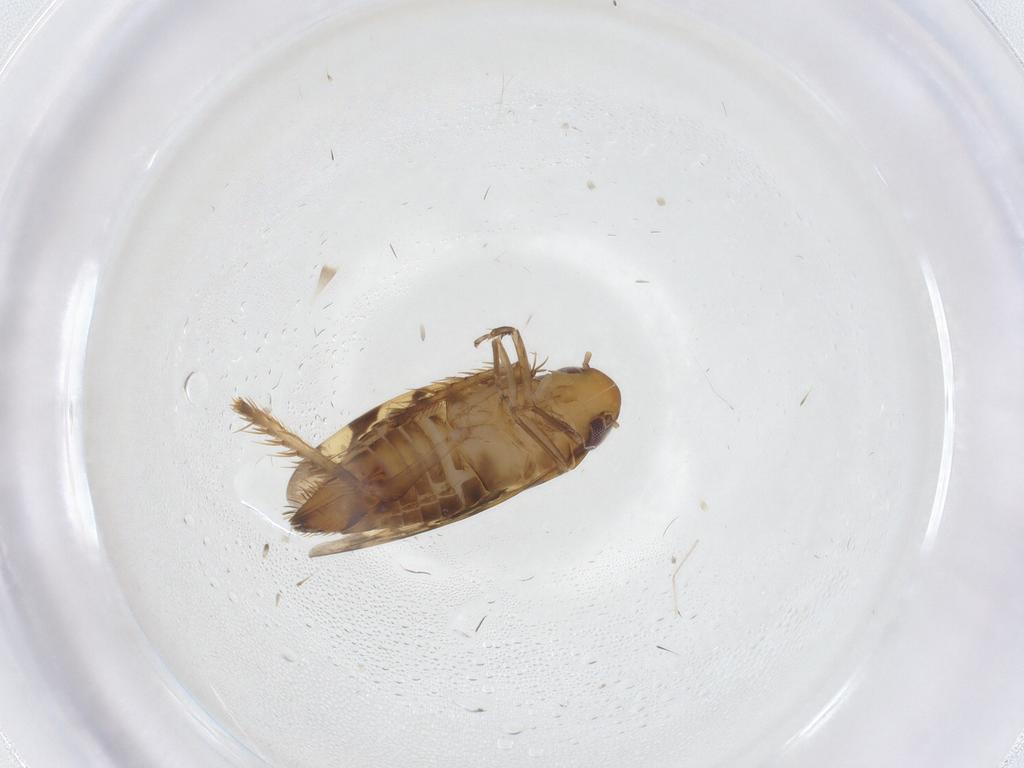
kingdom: Animalia
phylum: Arthropoda
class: Insecta
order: Hemiptera
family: Cicadellidae
